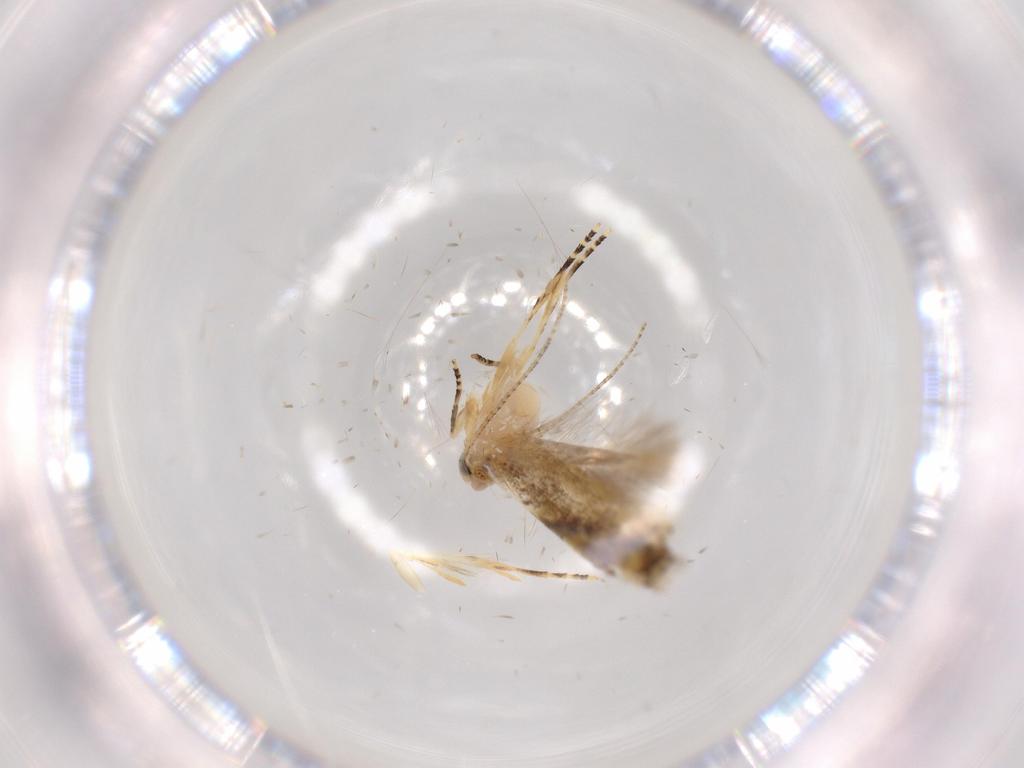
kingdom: Animalia
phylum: Arthropoda
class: Insecta
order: Lepidoptera
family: Bucculatricidae
